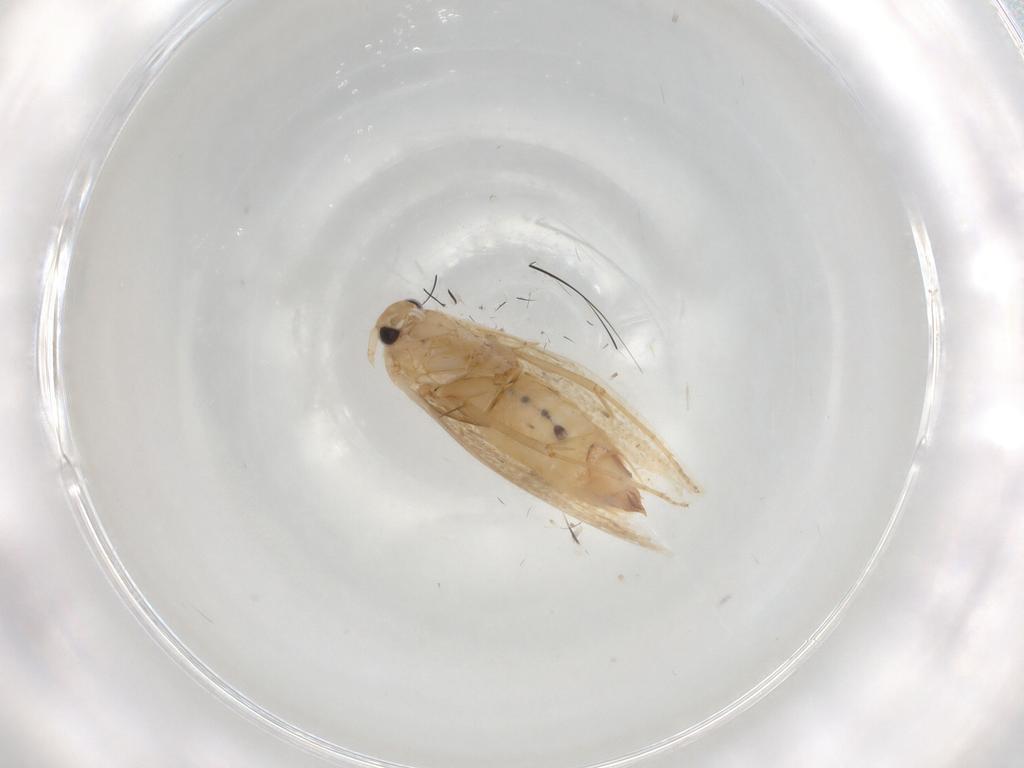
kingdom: Animalia
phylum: Arthropoda
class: Insecta
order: Lepidoptera
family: Bucculatricidae
